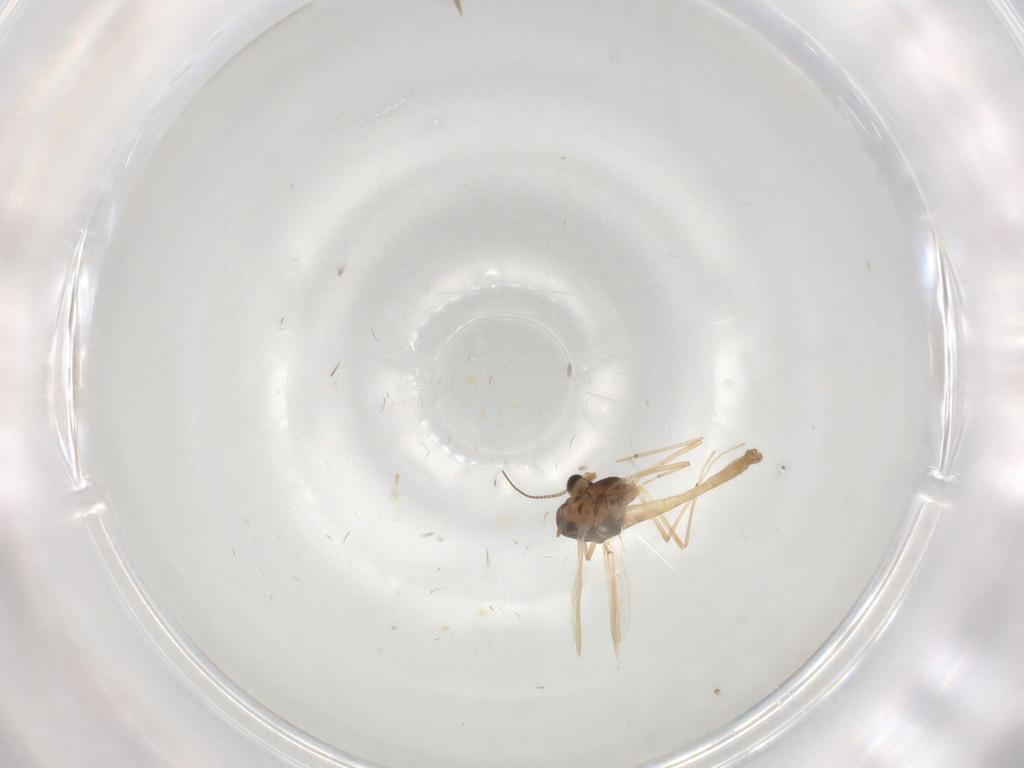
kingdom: Animalia
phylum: Arthropoda
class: Insecta
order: Diptera
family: Chironomidae
